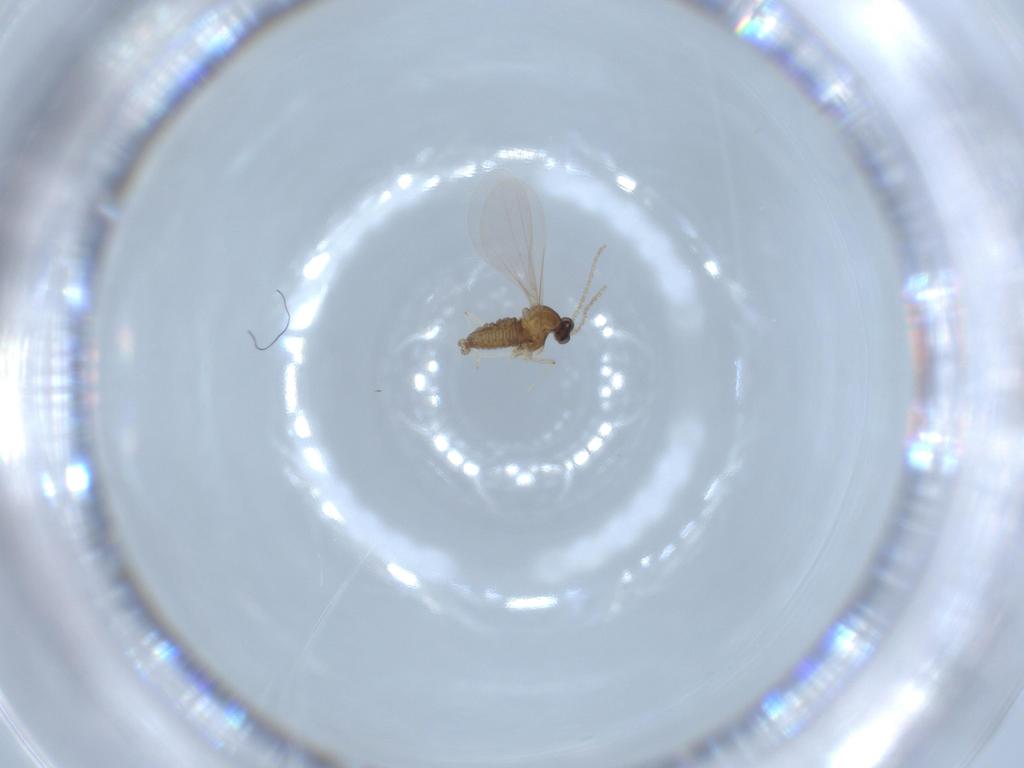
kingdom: Animalia
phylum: Arthropoda
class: Insecta
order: Diptera
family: Cecidomyiidae
